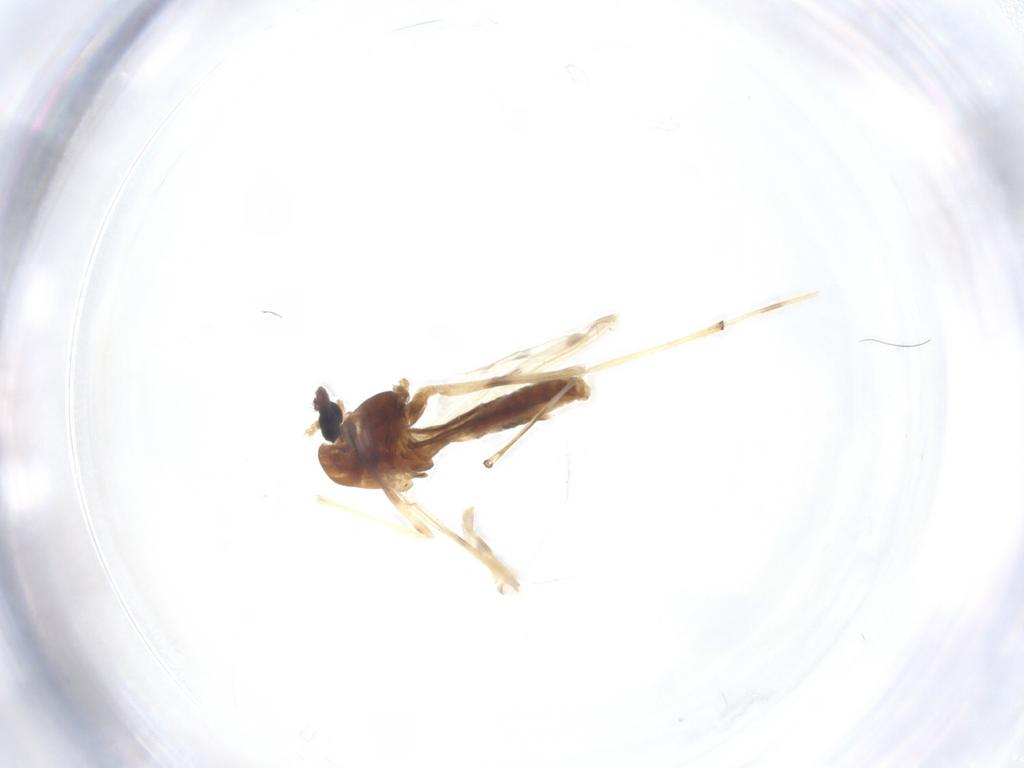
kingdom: Animalia
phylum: Arthropoda
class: Insecta
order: Diptera
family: Chironomidae
